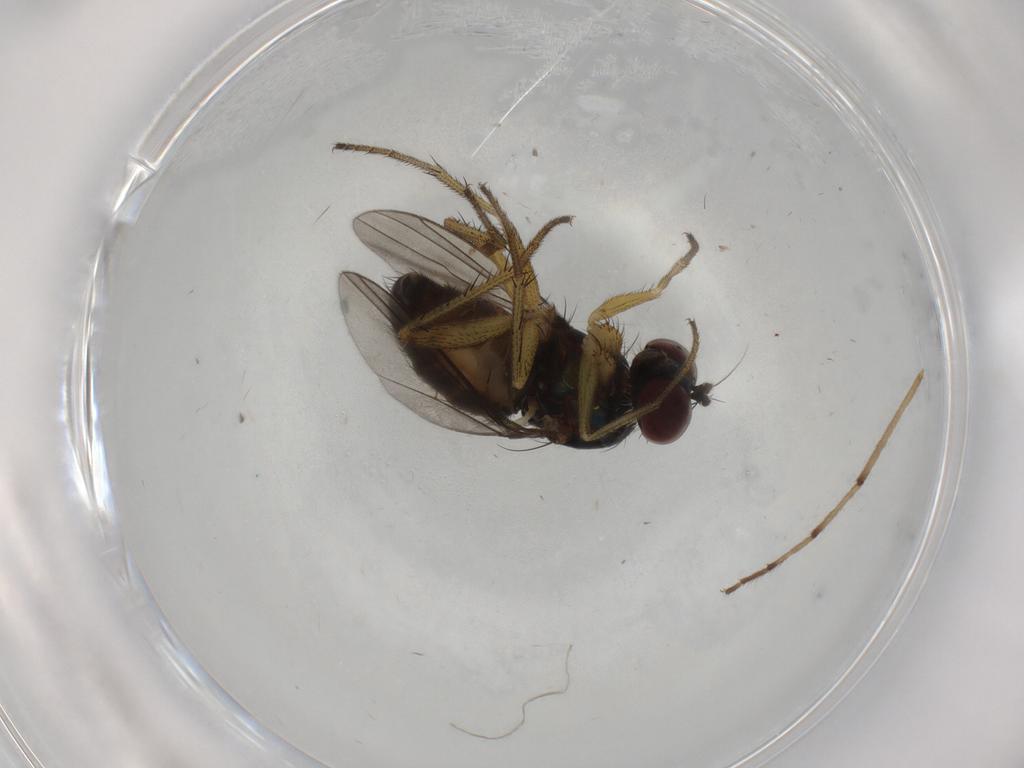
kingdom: Animalia
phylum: Arthropoda
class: Insecta
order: Diptera
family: Dolichopodidae
